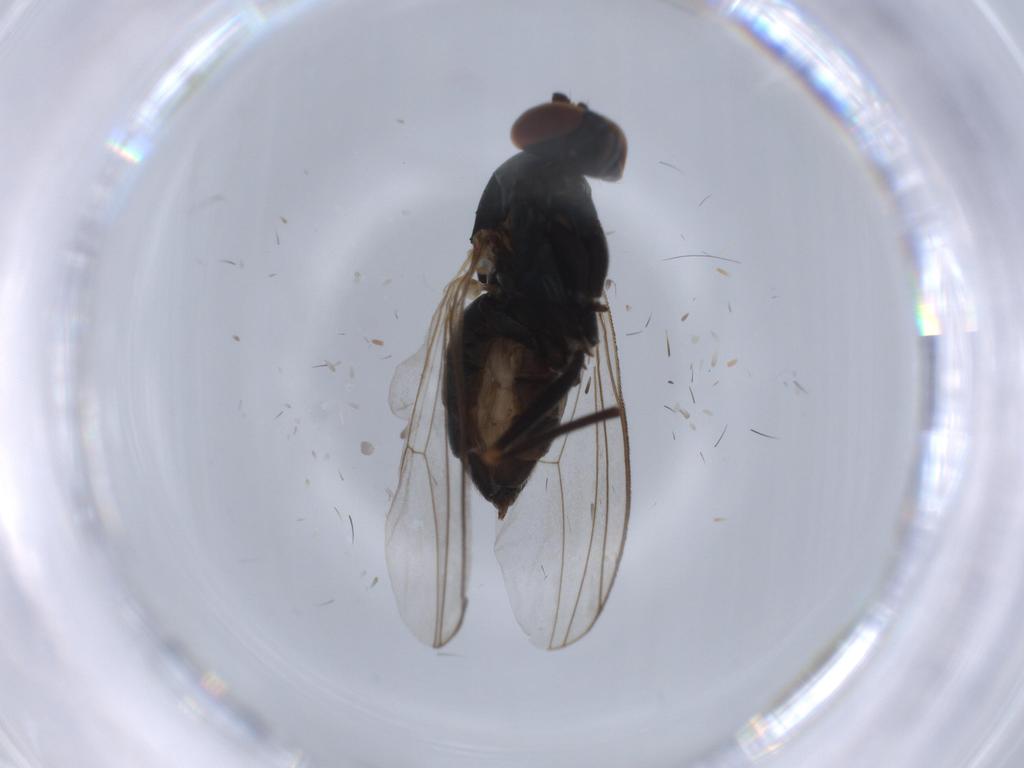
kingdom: Animalia
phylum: Arthropoda
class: Insecta
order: Diptera
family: Dolichopodidae
